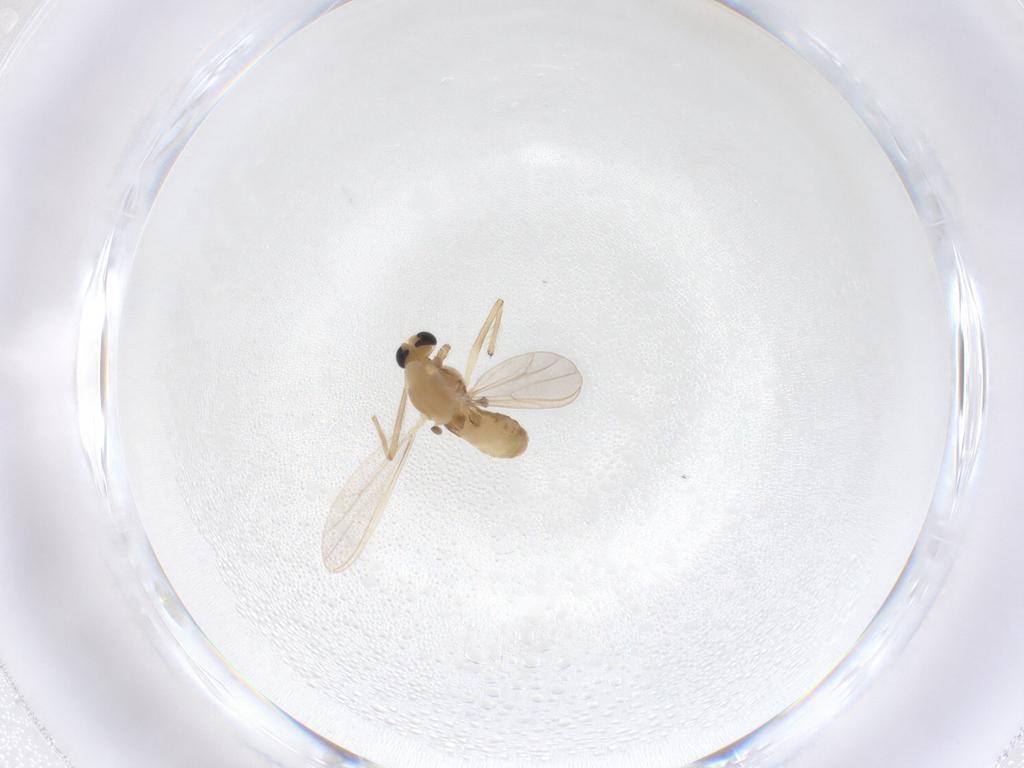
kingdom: Animalia
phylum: Arthropoda
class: Insecta
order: Diptera
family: Chironomidae
